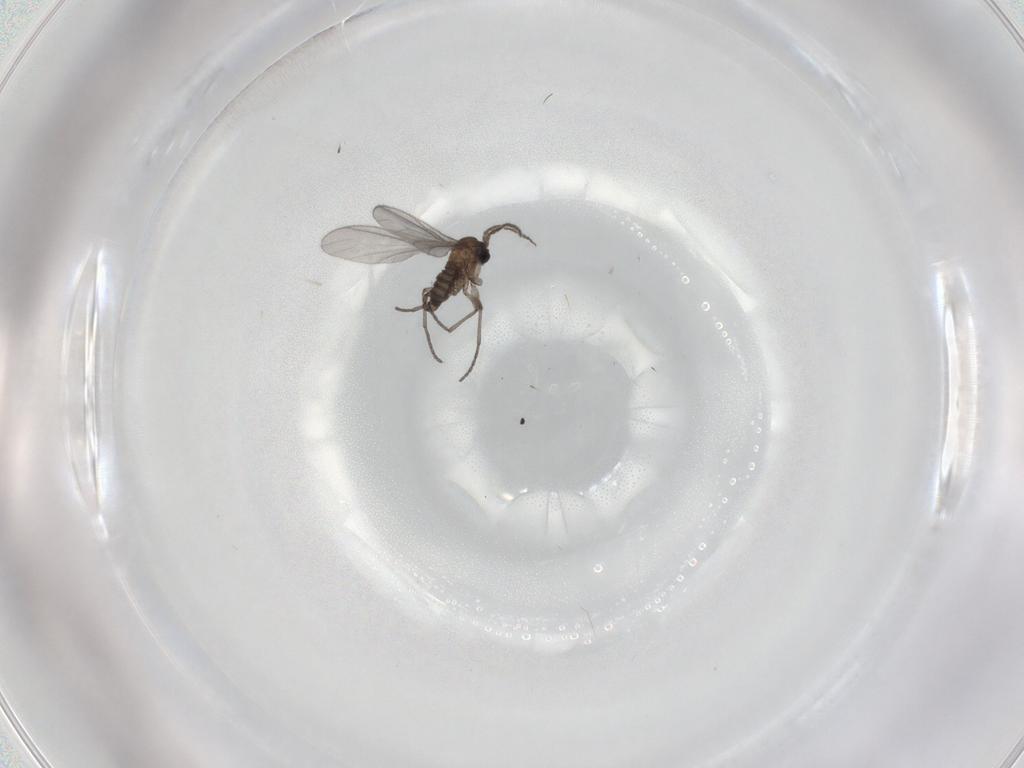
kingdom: Animalia
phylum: Arthropoda
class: Insecta
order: Diptera
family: Sciaridae
